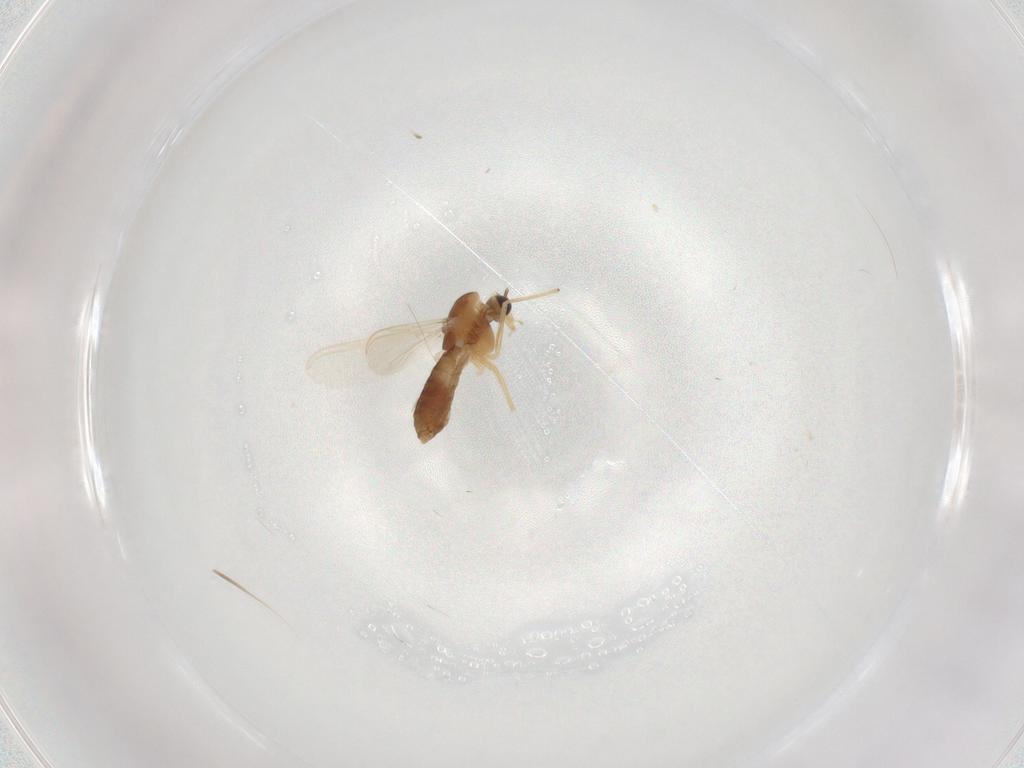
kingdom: Animalia
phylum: Arthropoda
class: Insecta
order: Diptera
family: Chironomidae
